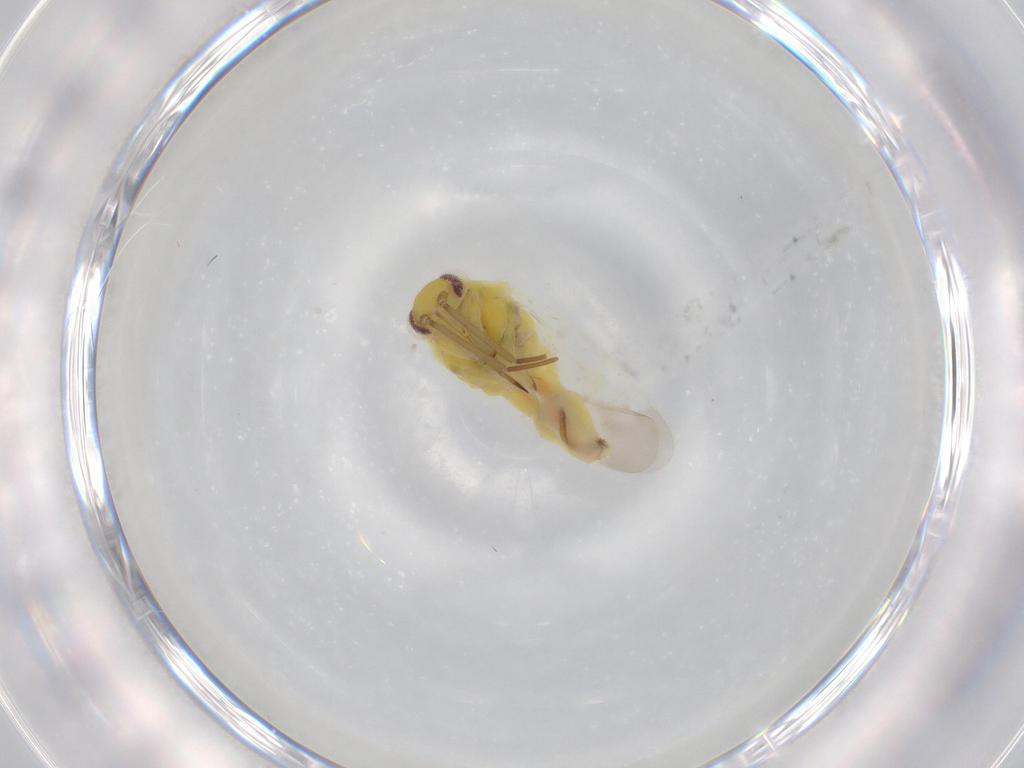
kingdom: Animalia
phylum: Arthropoda
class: Insecta
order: Hemiptera
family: Miridae
